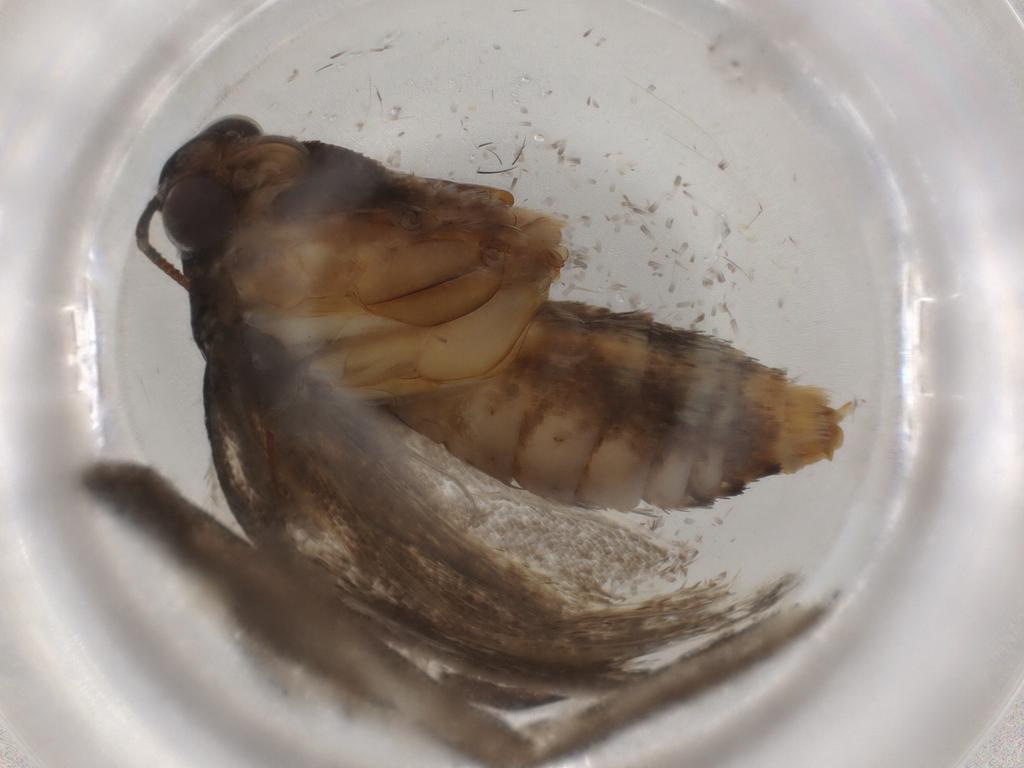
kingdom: Animalia
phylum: Arthropoda
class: Insecta
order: Lepidoptera
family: Oecophoridae
